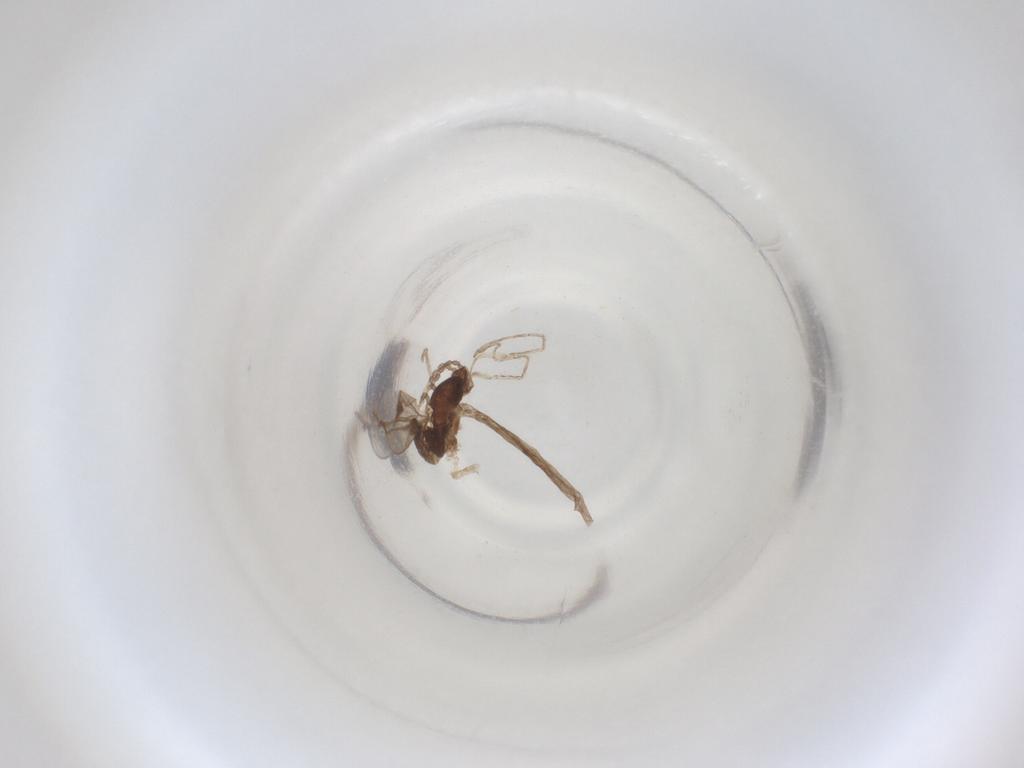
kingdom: Animalia
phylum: Arthropoda
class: Insecta
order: Diptera
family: Cecidomyiidae
